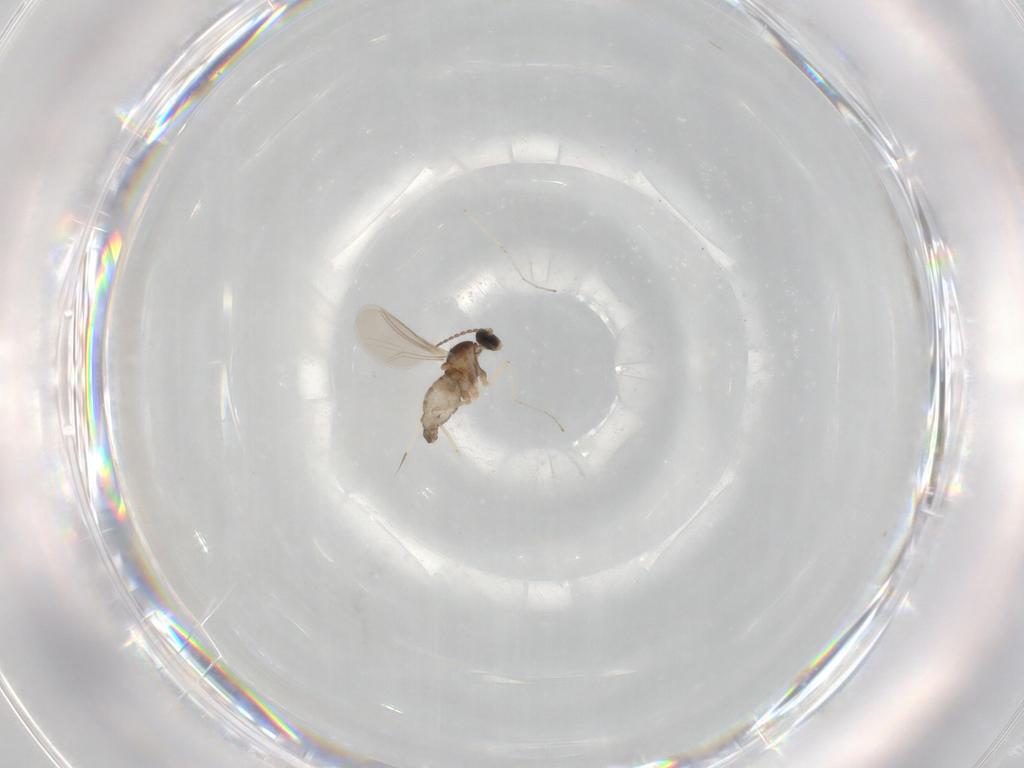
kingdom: Animalia
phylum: Arthropoda
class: Insecta
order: Diptera
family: Cecidomyiidae
